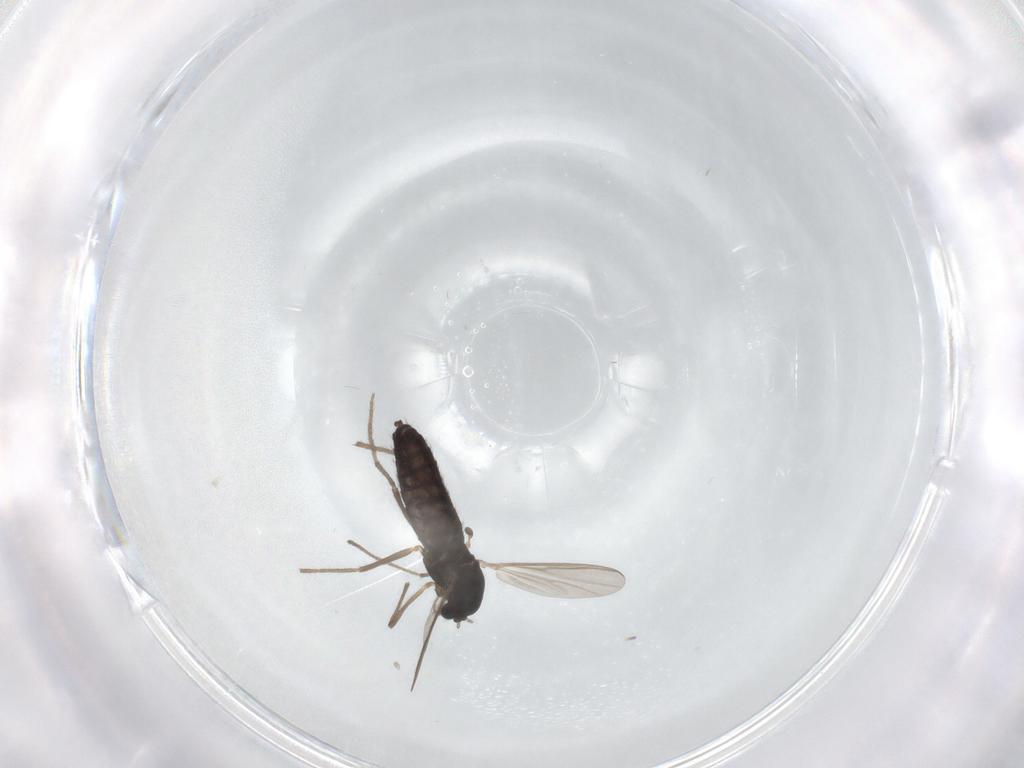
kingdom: Animalia
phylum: Arthropoda
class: Insecta
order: Diptera
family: Chironomidae
